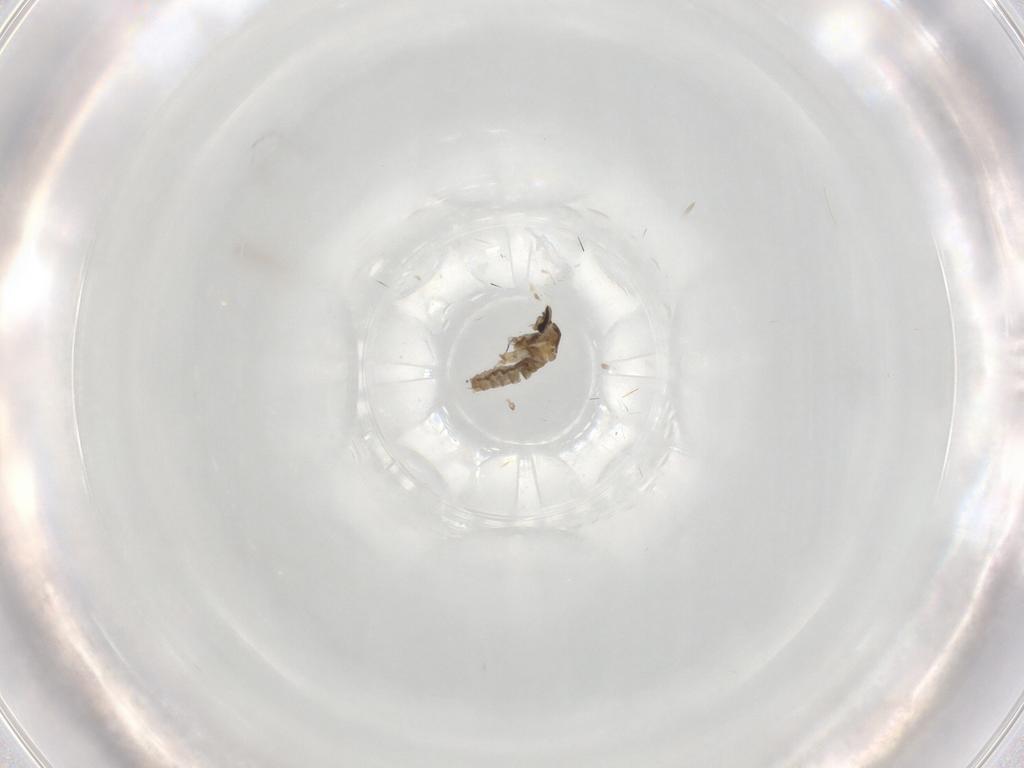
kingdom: Animalia
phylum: Arthropoda
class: Insecta
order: Diptera
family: Cecidomyiidae
